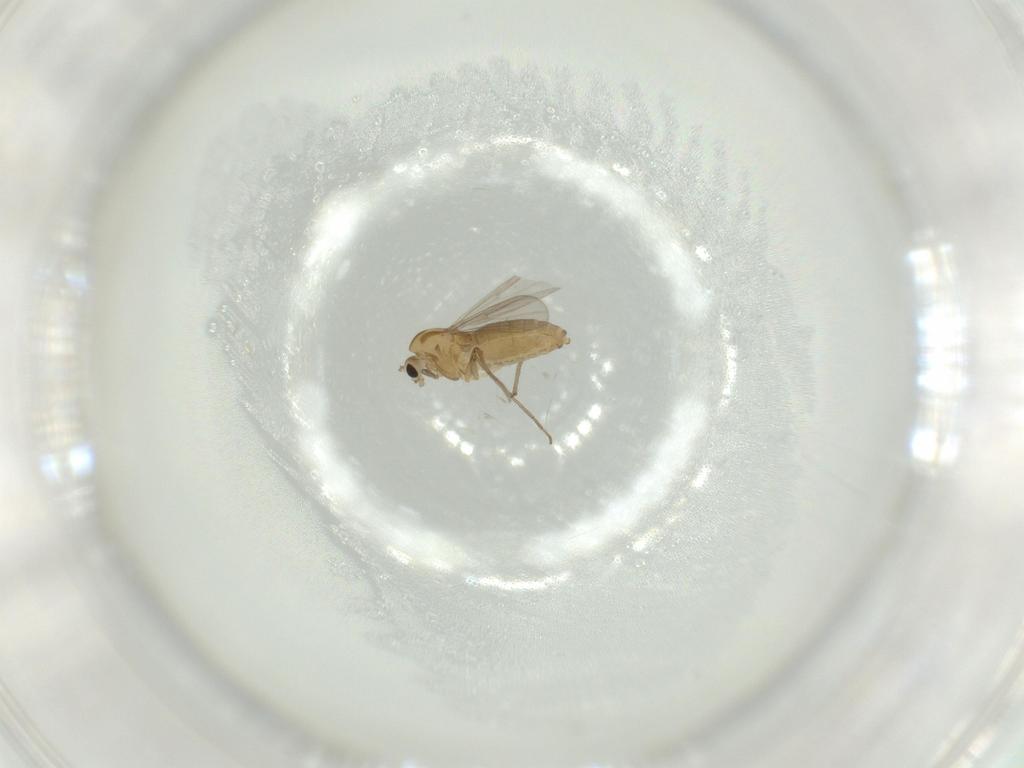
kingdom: Animalia
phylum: Arthropoda
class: Insecta
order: Diptera
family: Chironomidae
